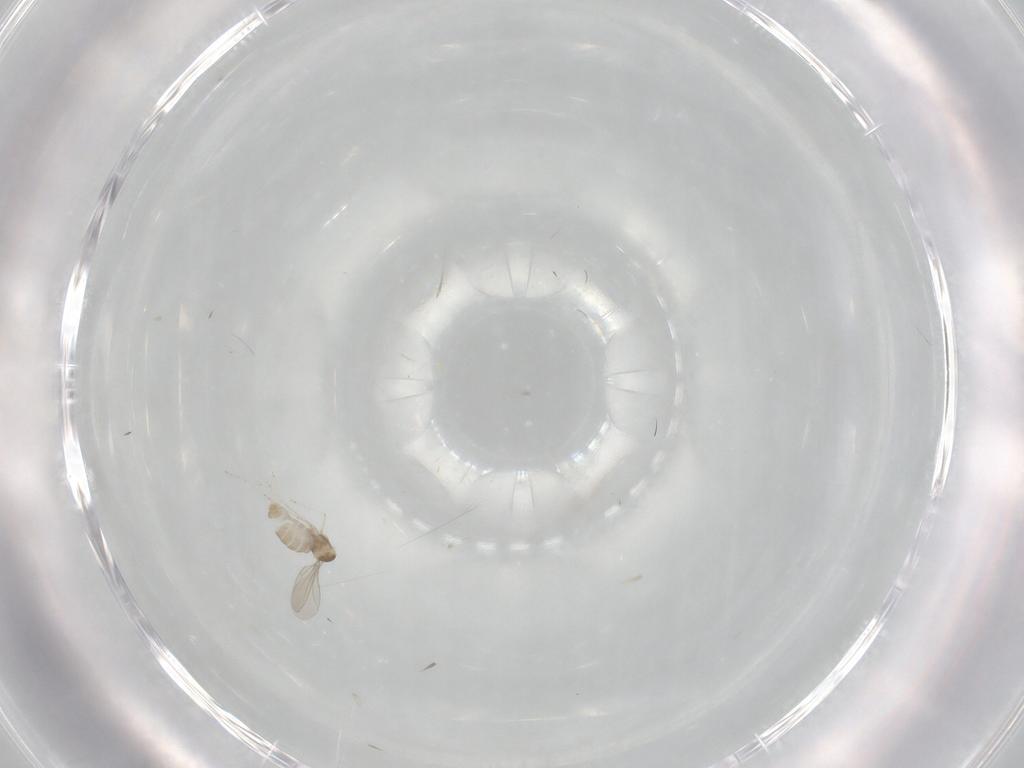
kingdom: Animalia
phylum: Arthropoda
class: Insecta
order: Diptera
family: Cecidomyiidae
